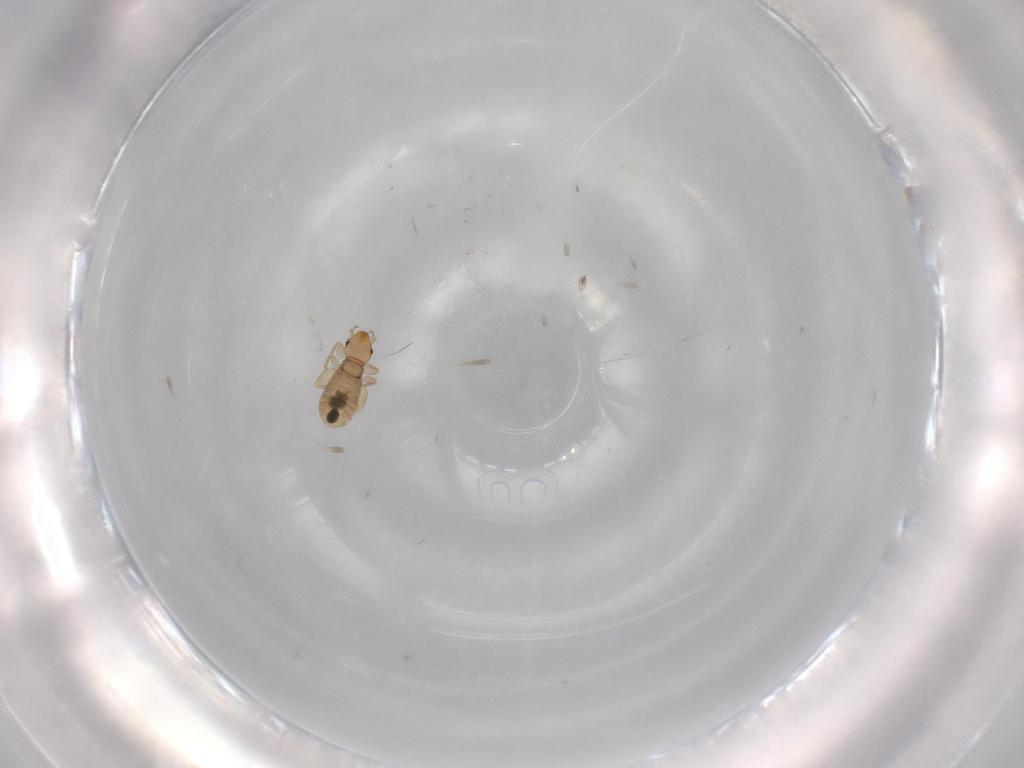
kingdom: Animalia
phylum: Arthropoda
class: Insecta
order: Psocodea
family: Liposcelididae
